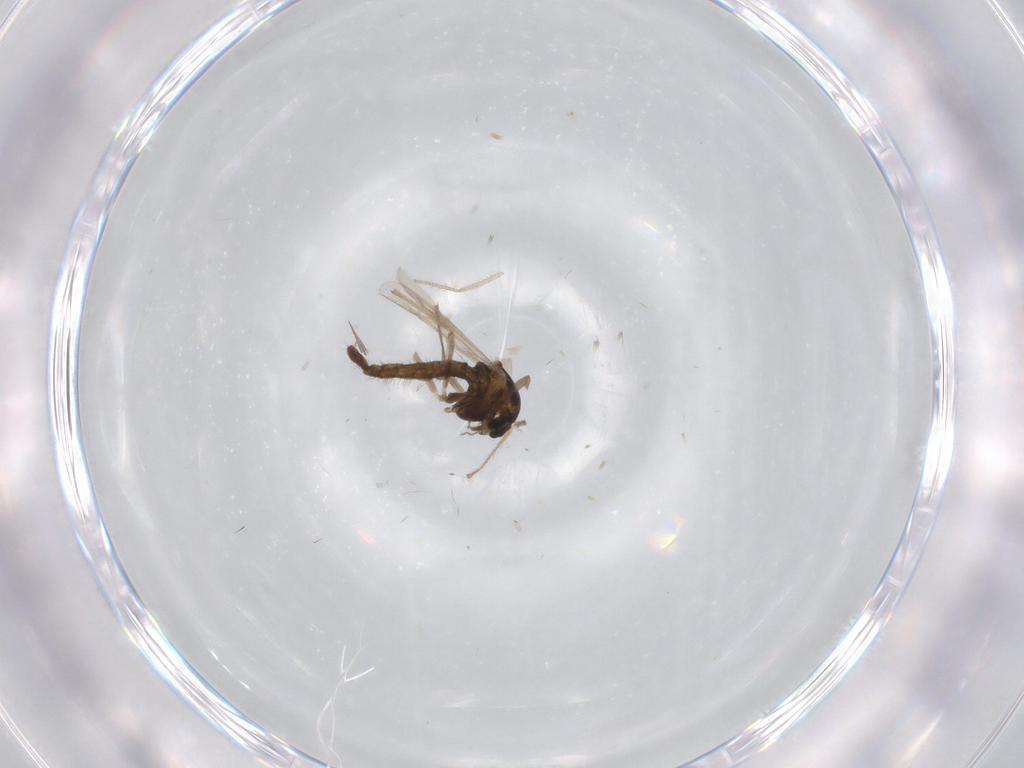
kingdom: Animalia
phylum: Arthropoda
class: Insecta
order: Diptera
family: Chironomidae
